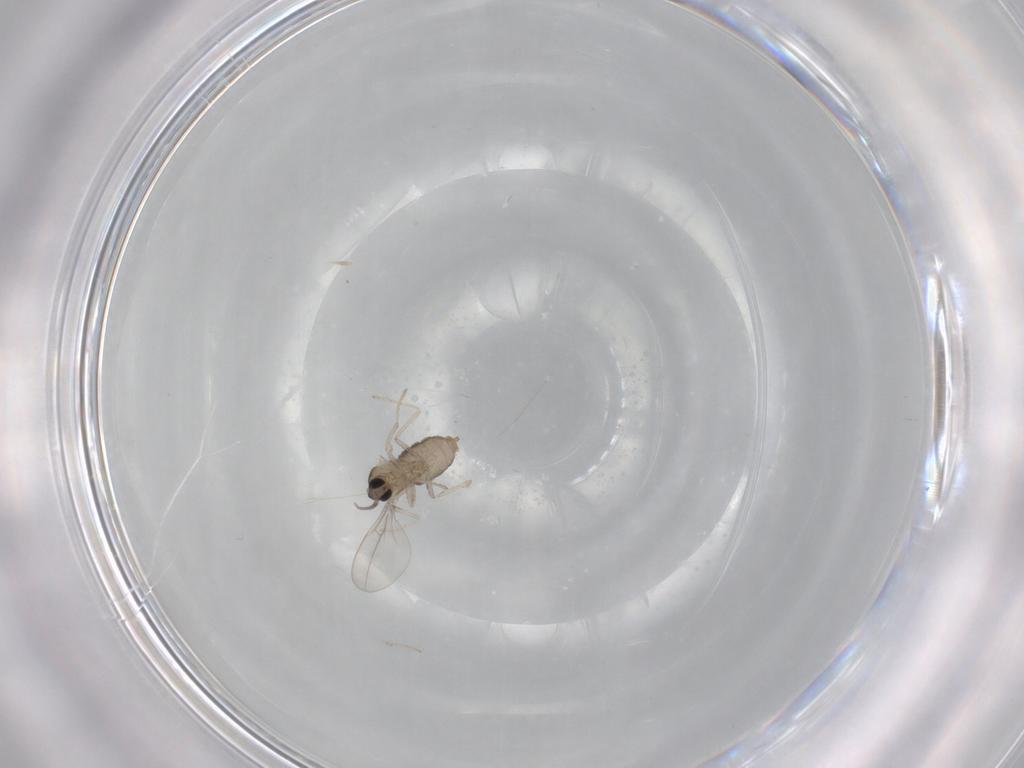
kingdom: Animalia
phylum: Arthropoda
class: Insecta
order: Diptera
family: Cecidomyiidae
